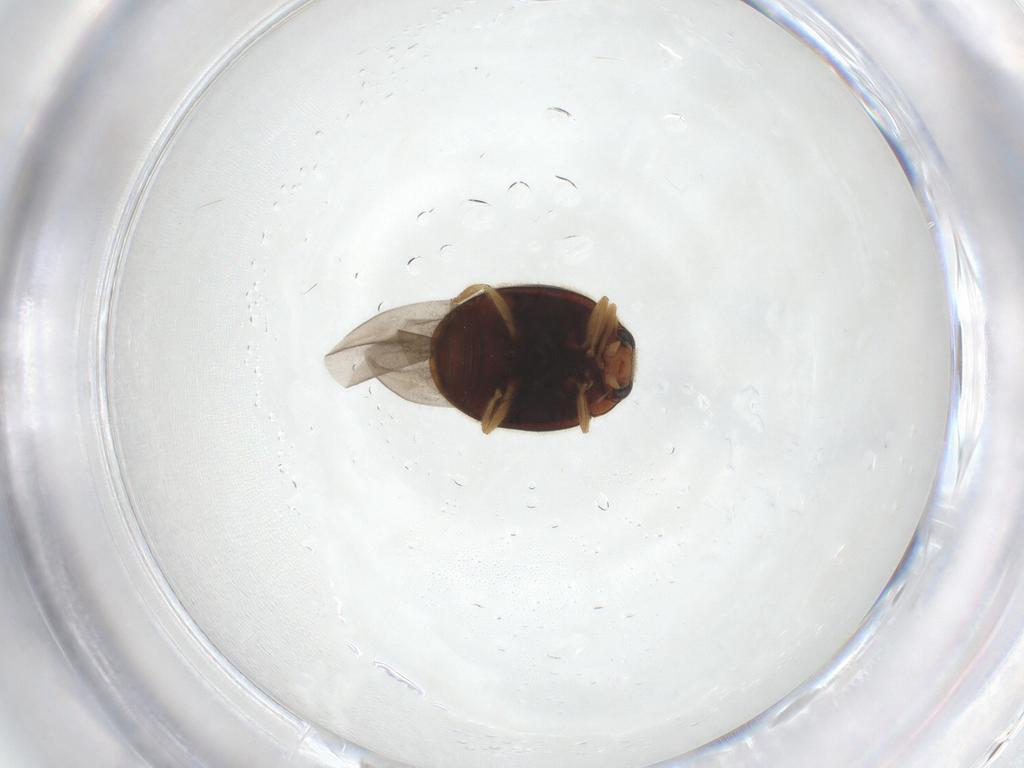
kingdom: Animalia
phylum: Arthropoda
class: Insecta
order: Coleoptera
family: Coccinellidae
